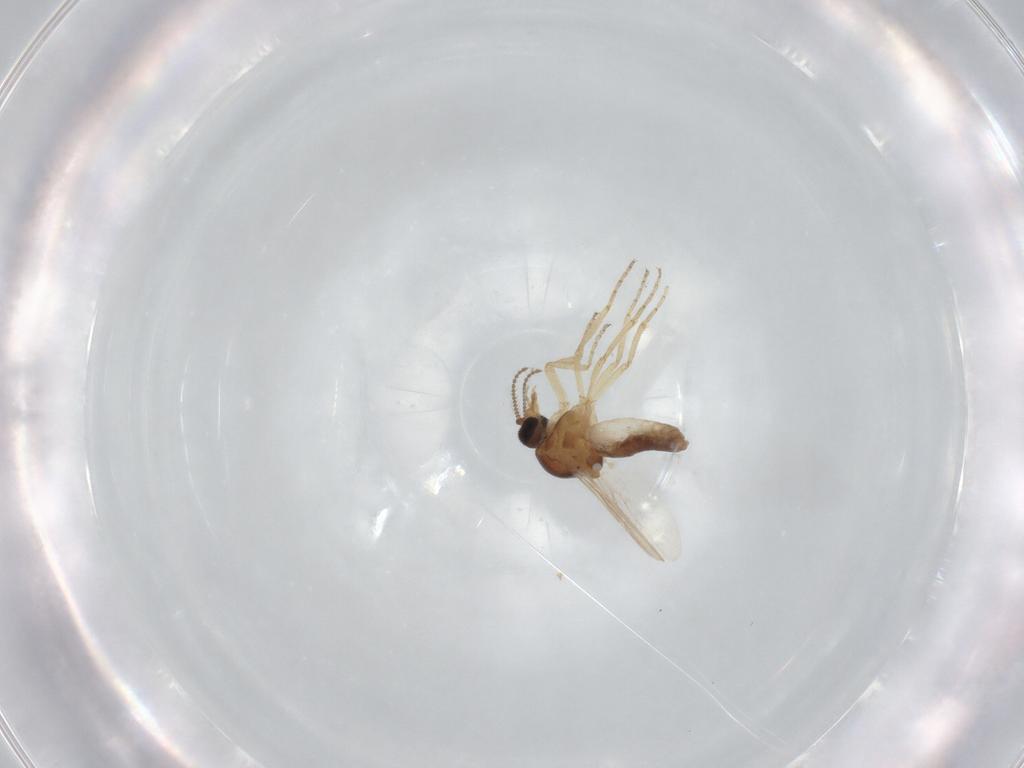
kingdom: Animalia
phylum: Arthropoda
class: Insecta
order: Diptera
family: Ceratopogonidae
